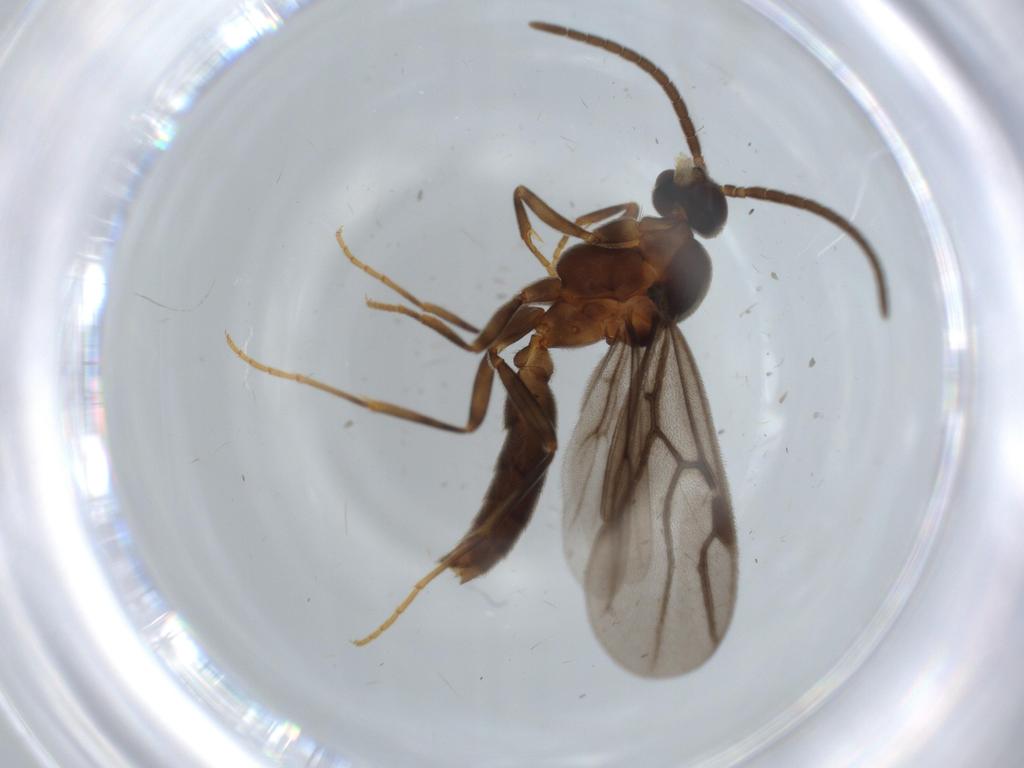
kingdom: Animalia
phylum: Arthropoda
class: Insecta
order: Hymenoptera
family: Formicidae
